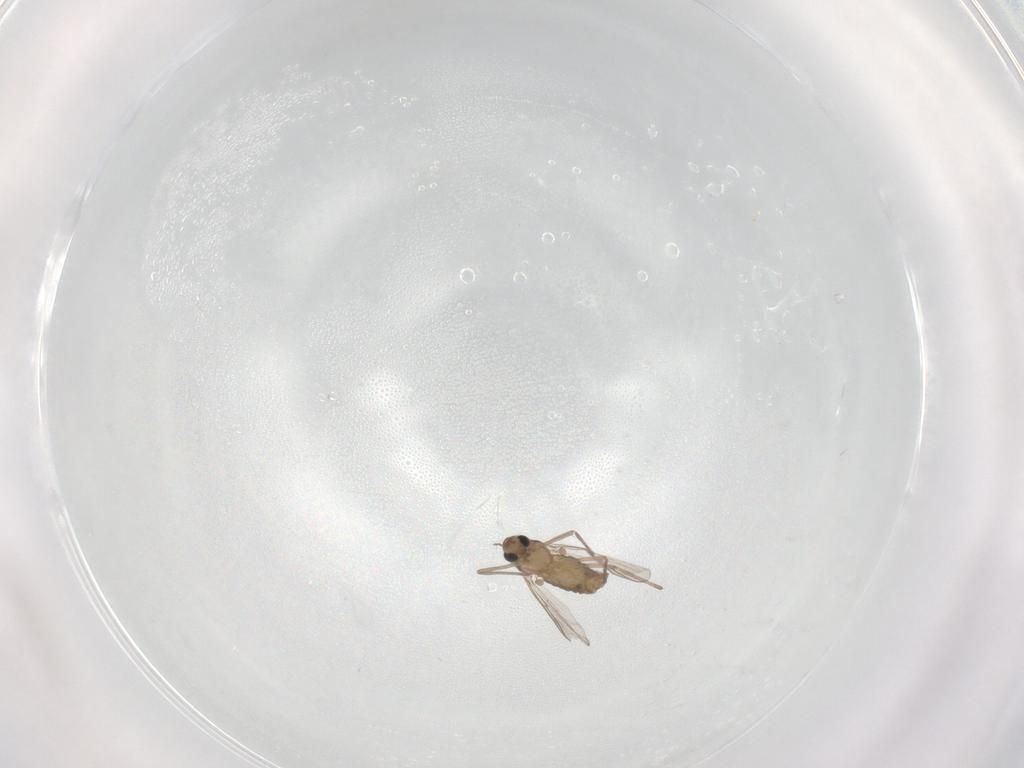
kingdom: Animalia
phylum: Arthropoda
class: Insecta
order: Diptera
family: Chironomidae
